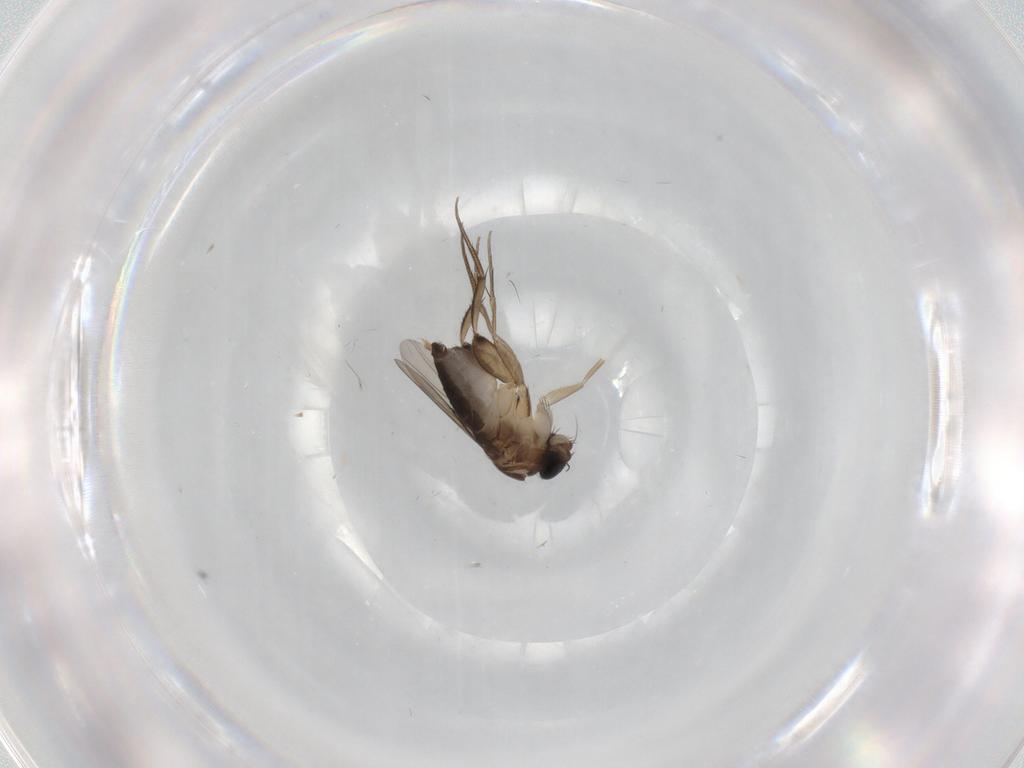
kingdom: Animalia
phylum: Arthropoda
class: Insecta
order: Diptera
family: Phoridae
